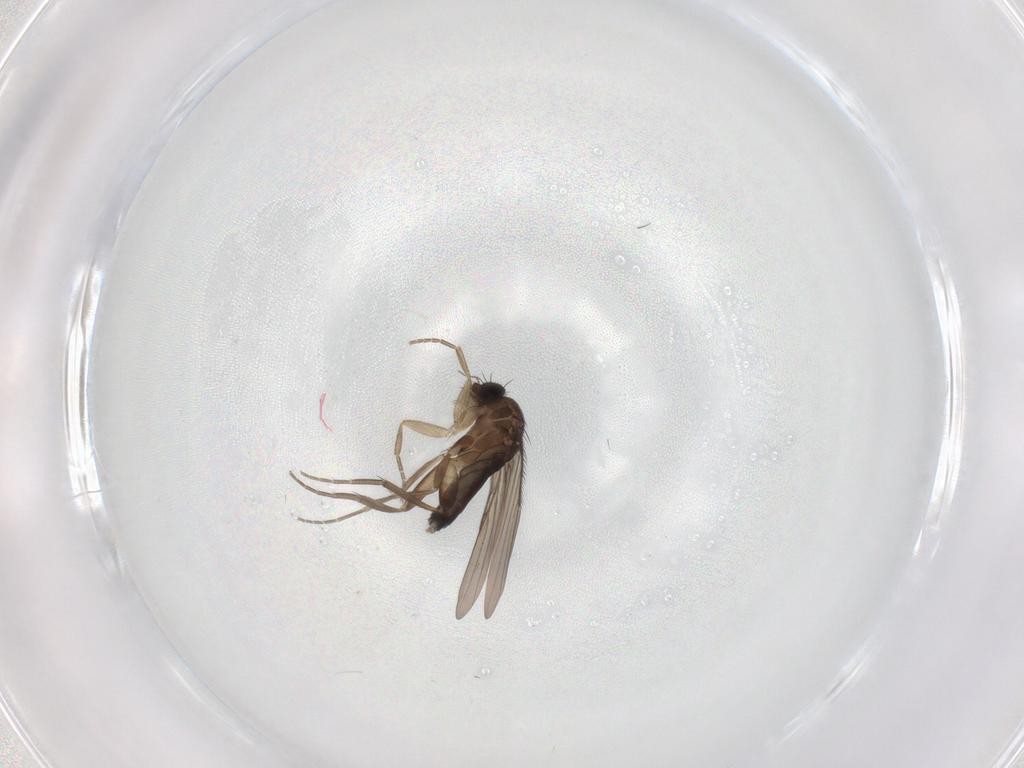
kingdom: Animalia
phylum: Arthropoda
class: Insecta
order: Diptera
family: Phoridae
